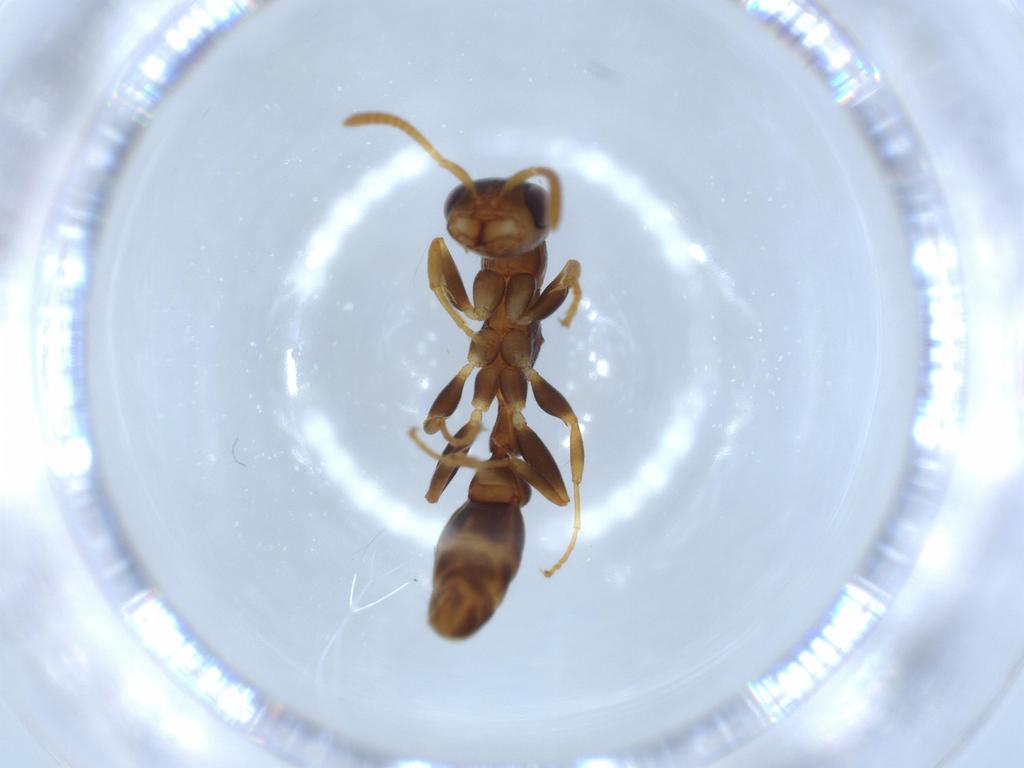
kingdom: Animalia
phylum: Arthropoda
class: Insecta
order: Hymenoptera
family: Formicidae
